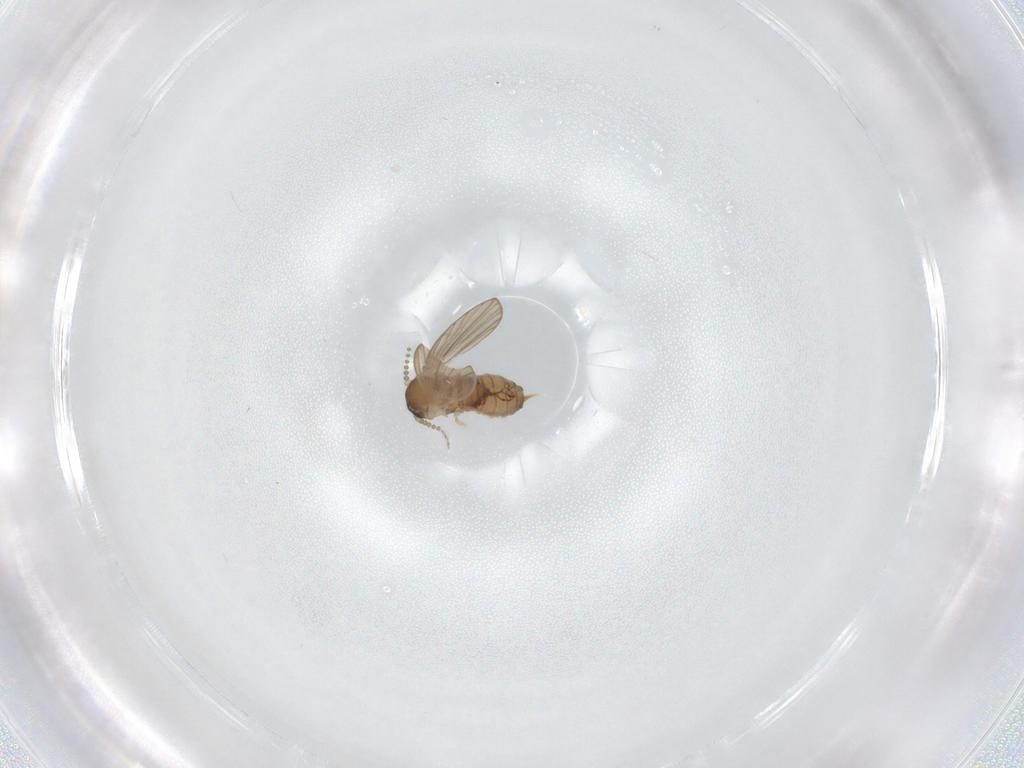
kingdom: Animalia
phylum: Arthropoda
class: Insecta
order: Diptera
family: Psychodidae
